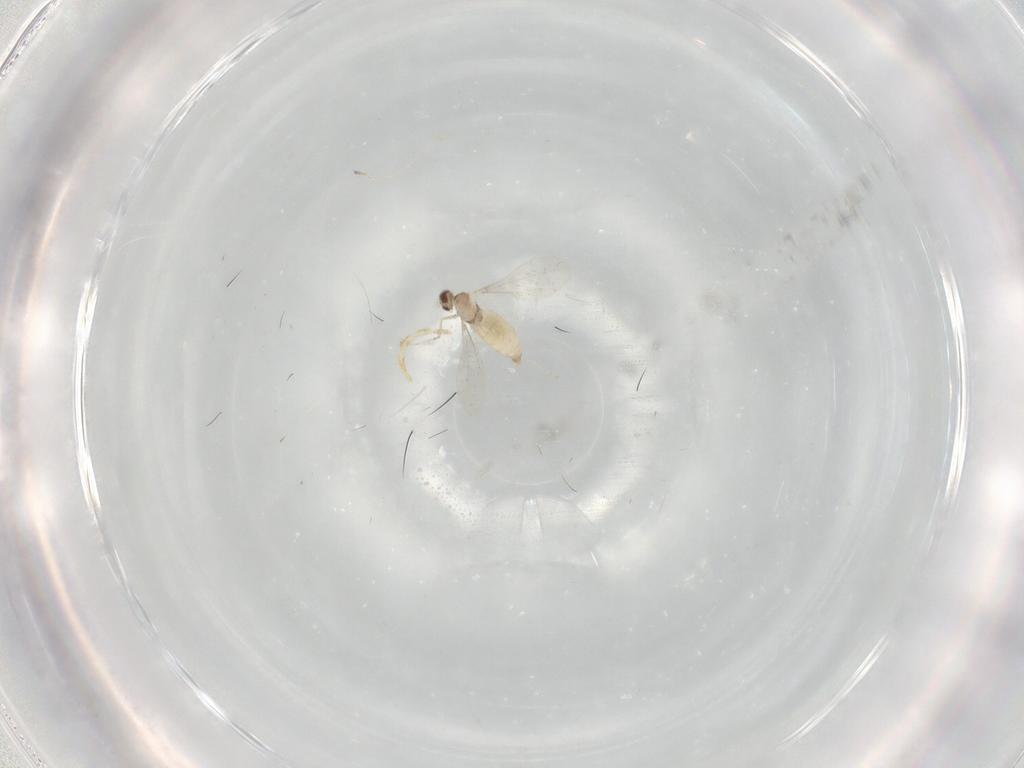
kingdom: Animalia
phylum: Arthropoda
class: Insecta
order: Diptera
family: Cecidomyiidae
